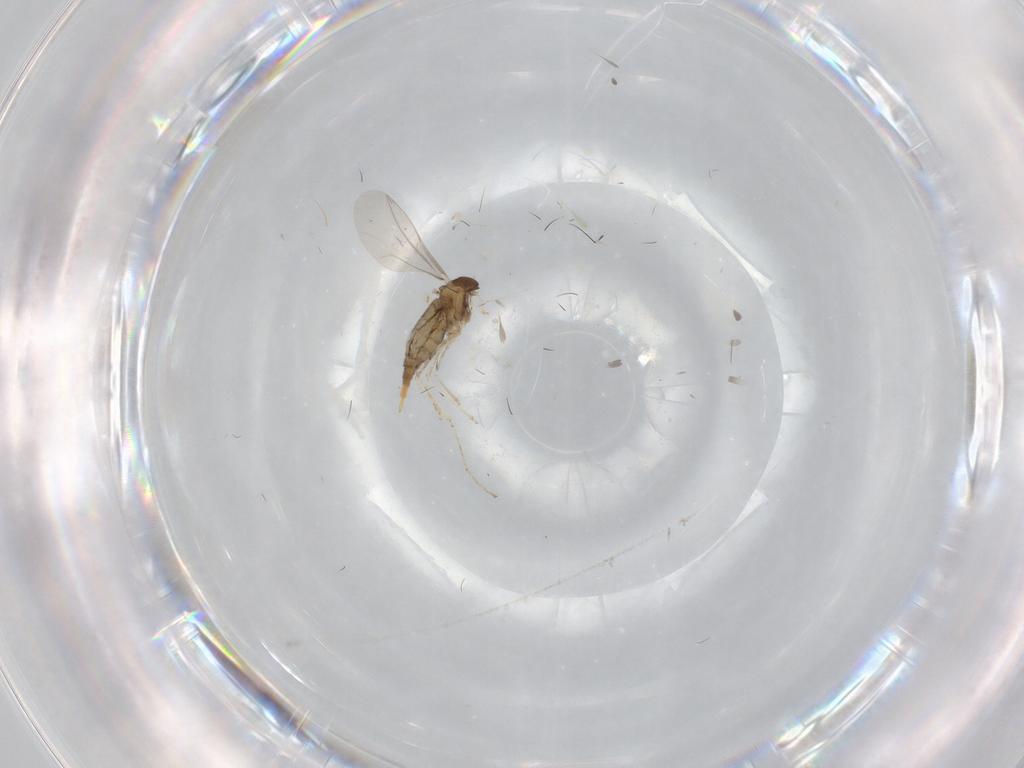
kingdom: Animalia
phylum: Arthropoda
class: Insecta
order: Diptera
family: Cecidomyiidae
